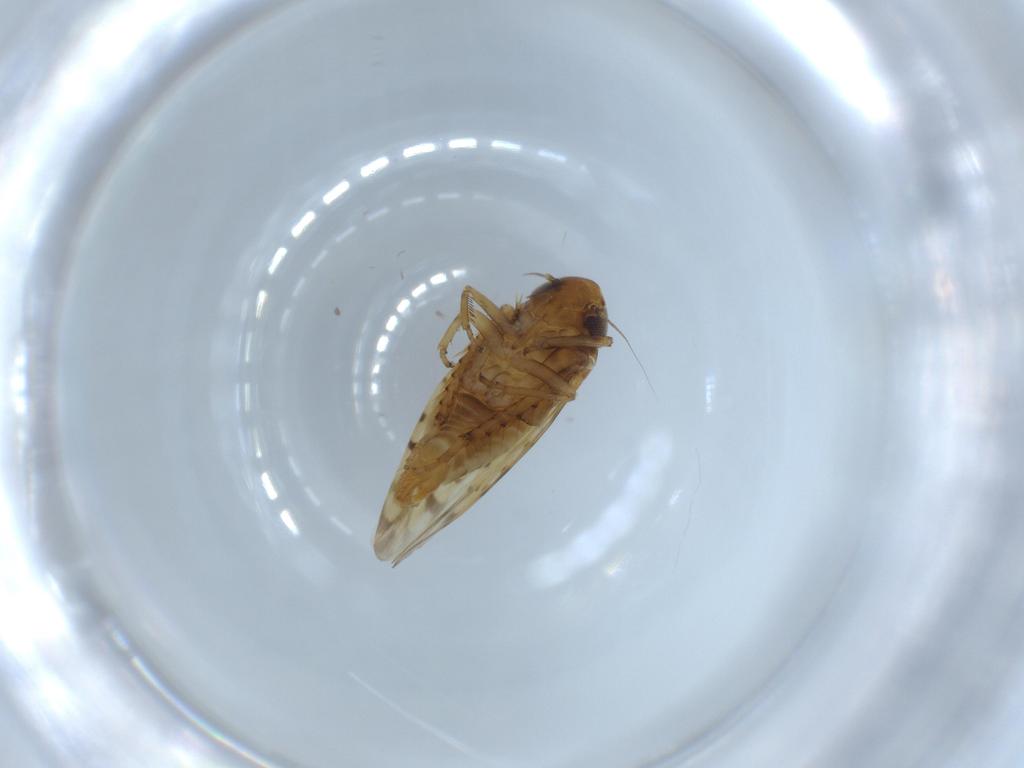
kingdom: Animalia
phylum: Arthropoda
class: Insecta
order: Hemiptera
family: Cicadellidae
